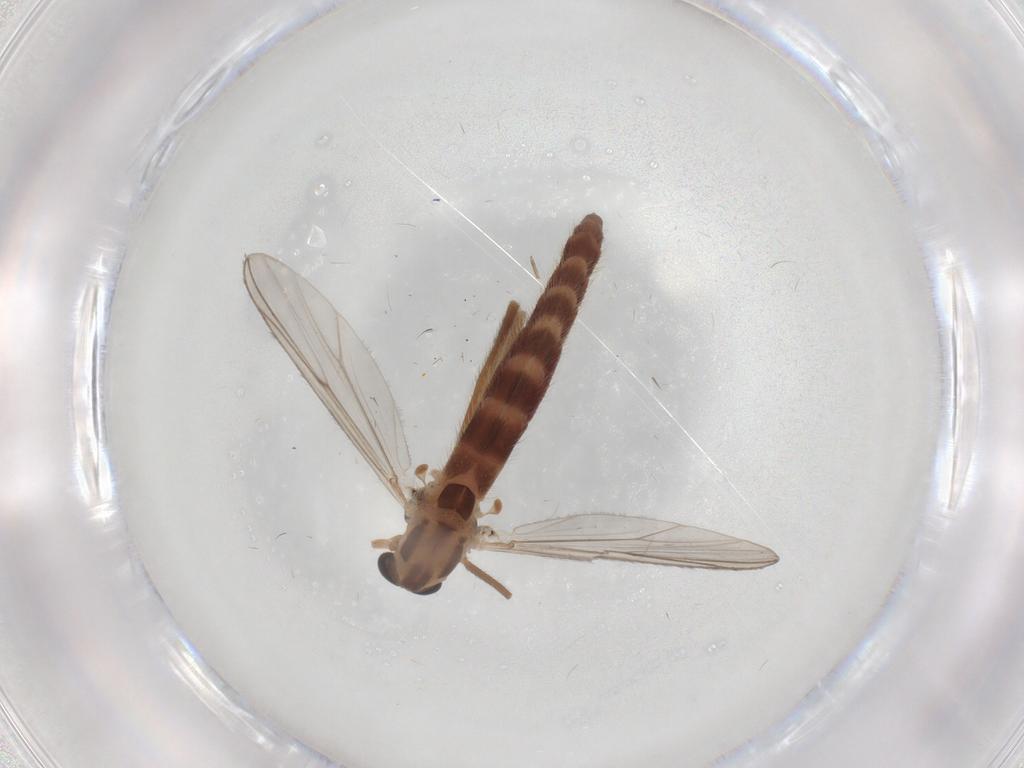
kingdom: Animalia
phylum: Arthropoda
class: Insecta
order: Diptera
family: Chironomidae
